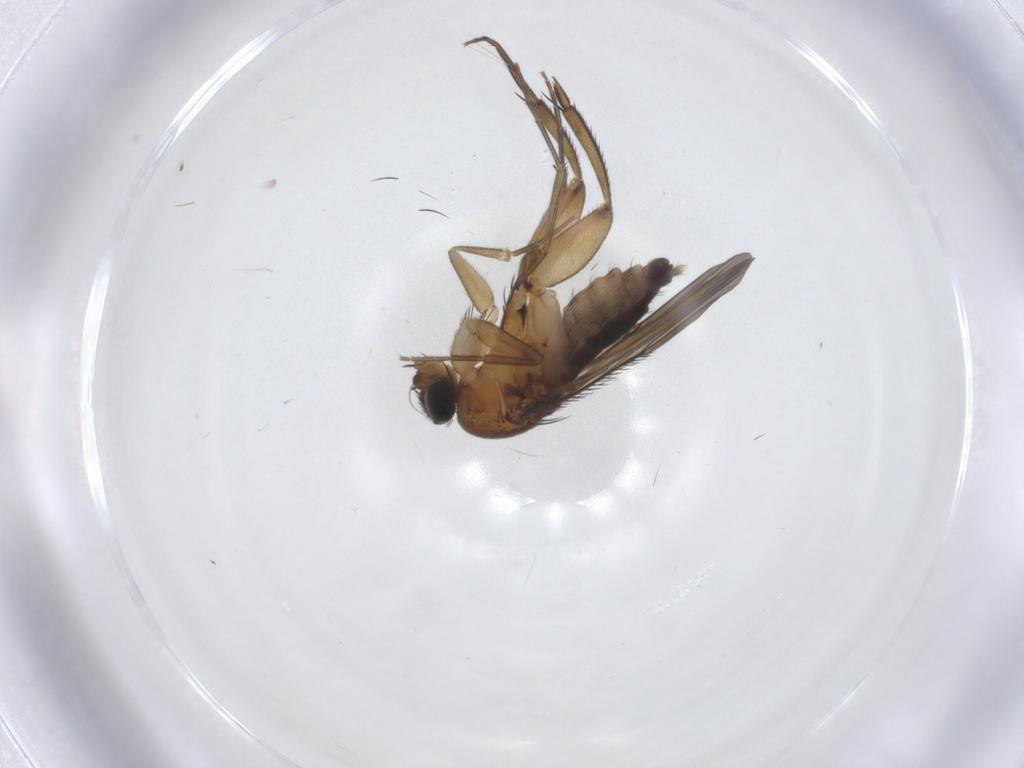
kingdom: Animalia
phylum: Arthropoda
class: Insecta
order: Diptera
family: Phoridae
